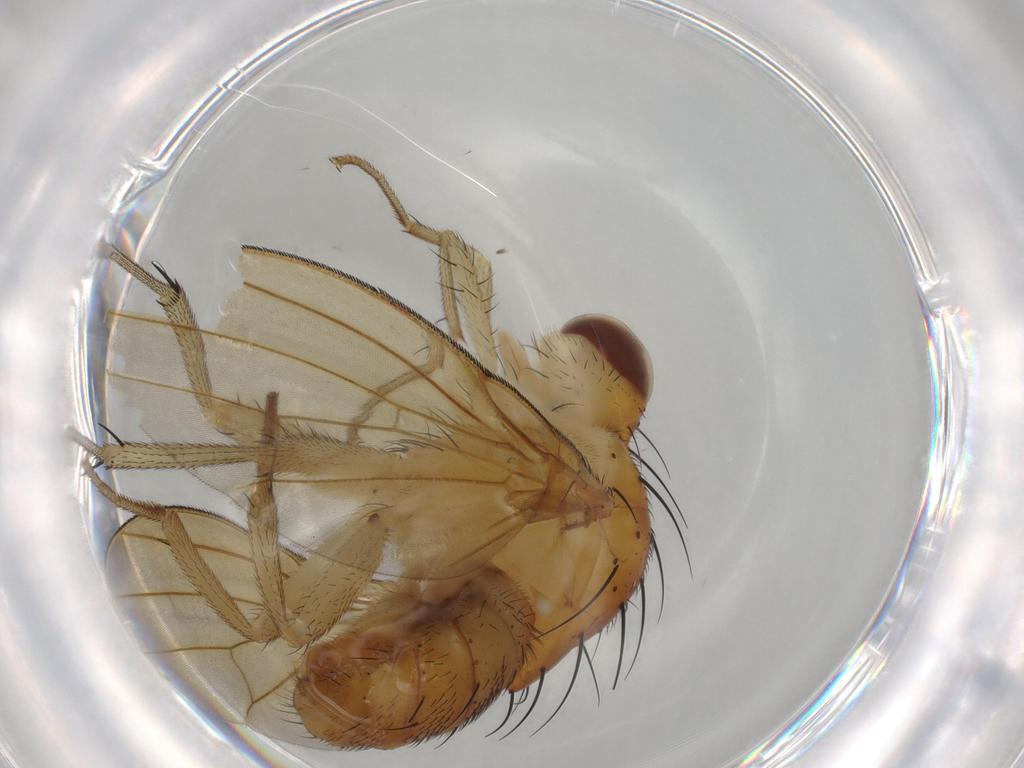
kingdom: Animalia
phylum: Arthropoda
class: Insecta
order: Diptera
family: Lauxaniidae
